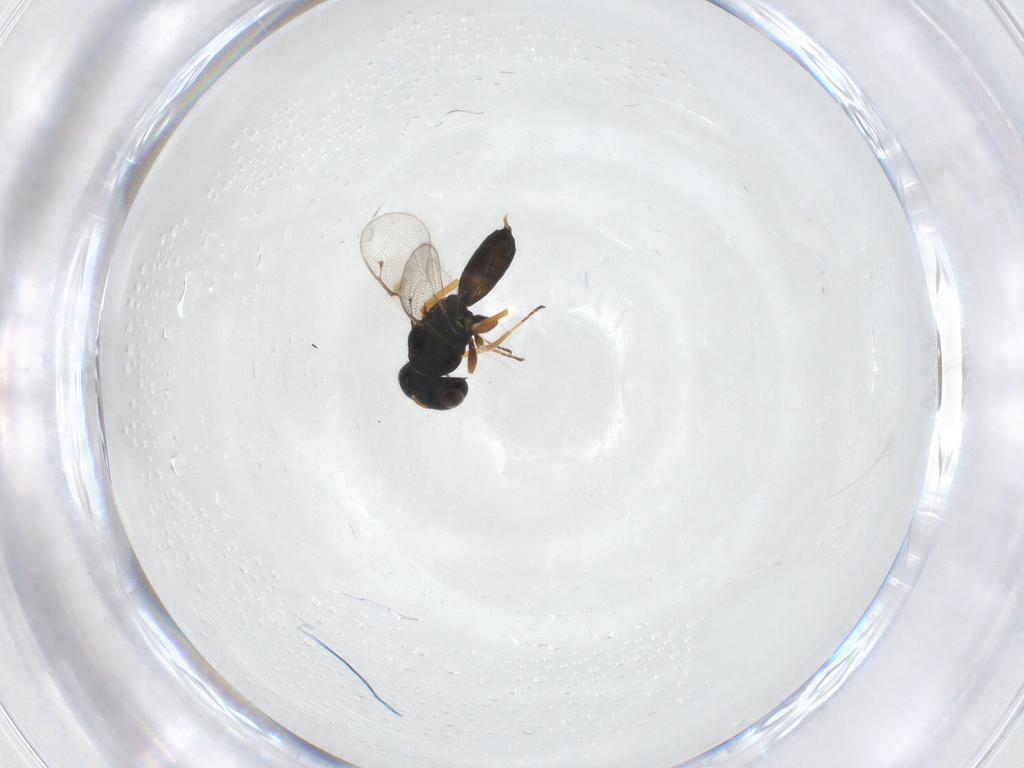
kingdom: Animalia
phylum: Arthropoda
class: Insecta
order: Hymenoptera
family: Pteromalidae
